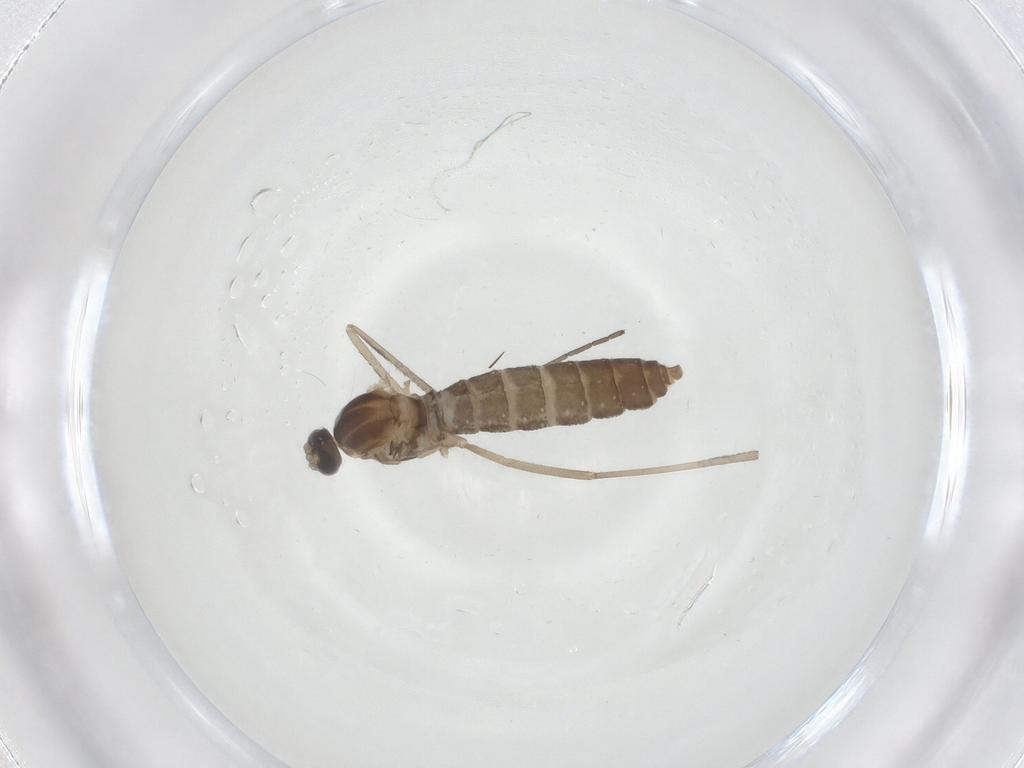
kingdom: Animalia
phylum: Arthropoda
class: Insecta
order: Diptera
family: Cecidomyiidae
